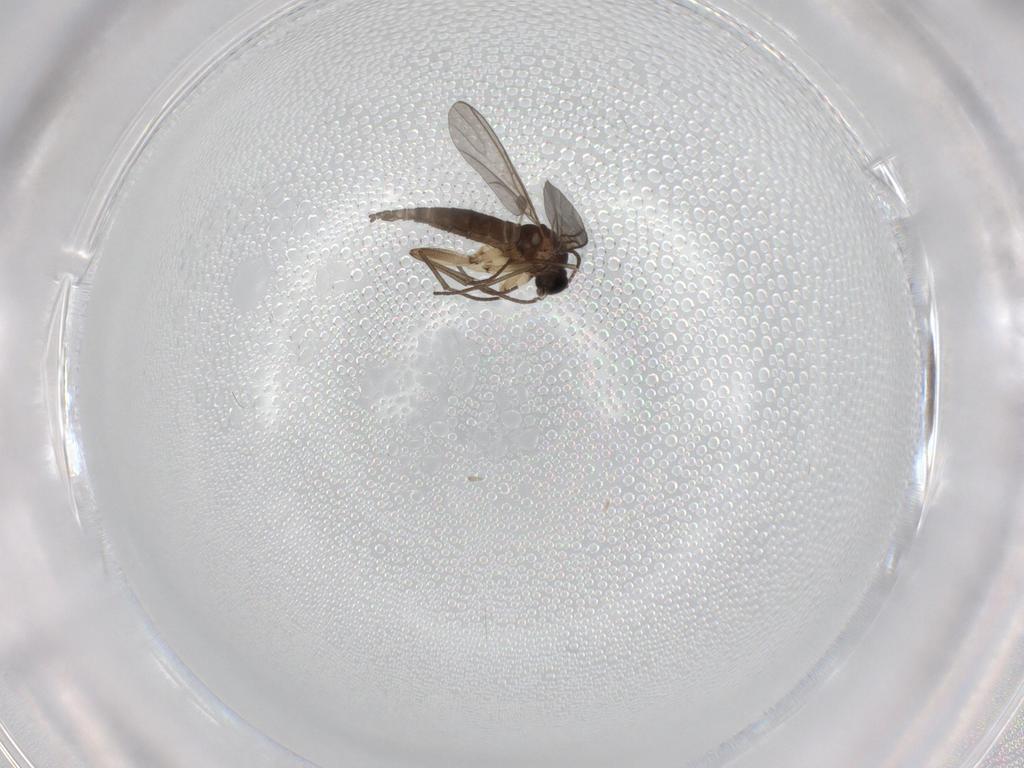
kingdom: Animalia
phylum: Arthropoda
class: Insecta
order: Diptera
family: Sciaridae
